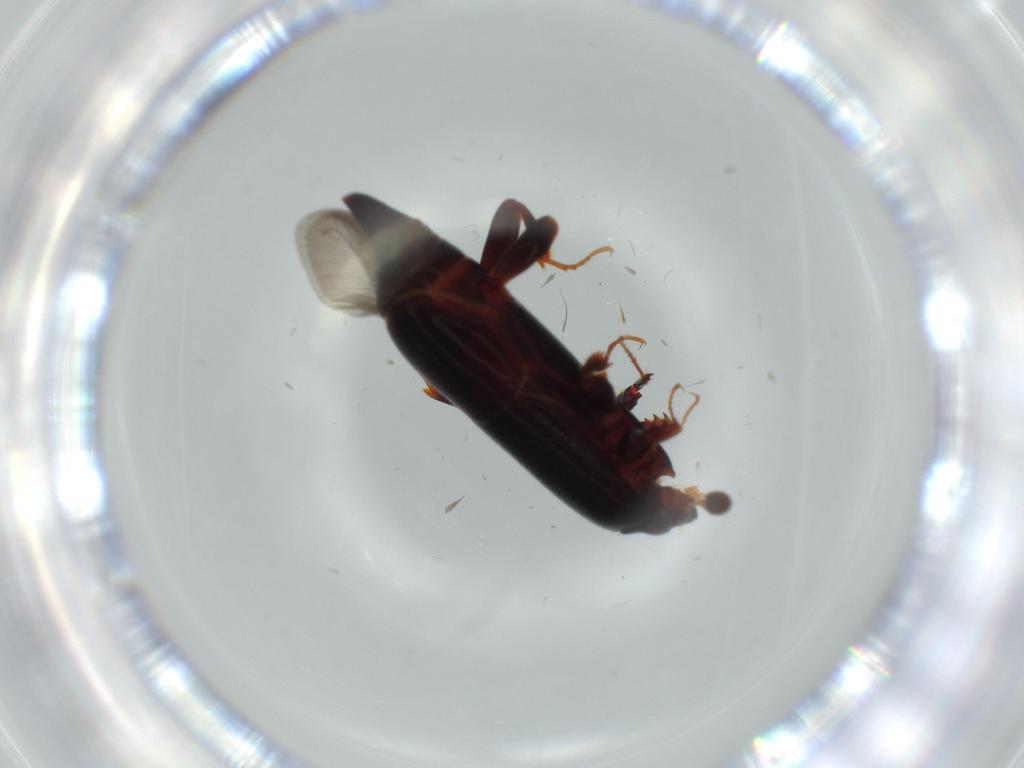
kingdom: Animalia
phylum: Arthropoda
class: Insecta
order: Coleoptera
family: Histeridae
